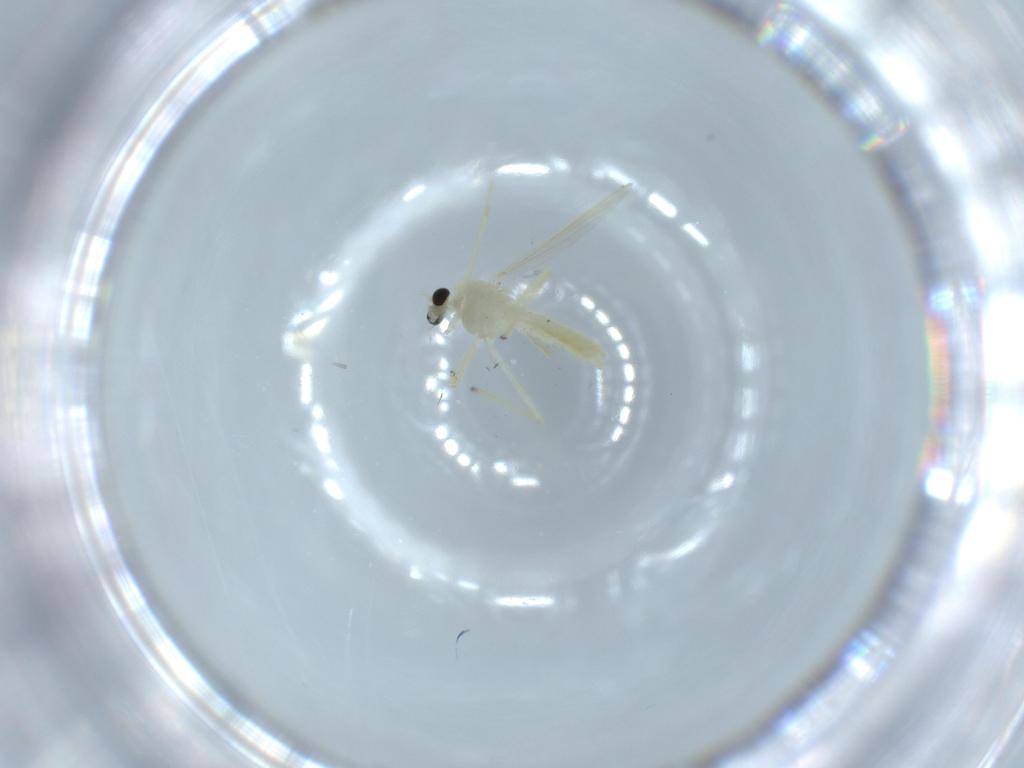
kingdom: Animalia
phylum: Arthropoda
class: Insecta
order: Diptera
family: Chironomidae
